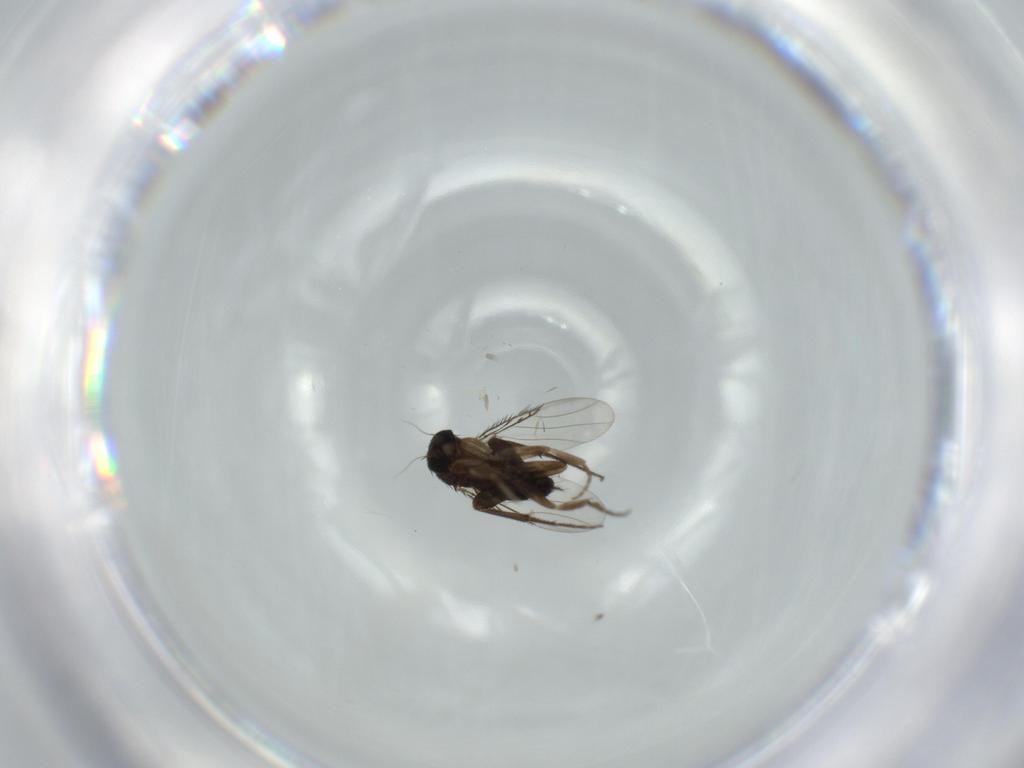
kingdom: Animalia
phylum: Arthropoda
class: Insecta
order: Diptera
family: Phoridae
